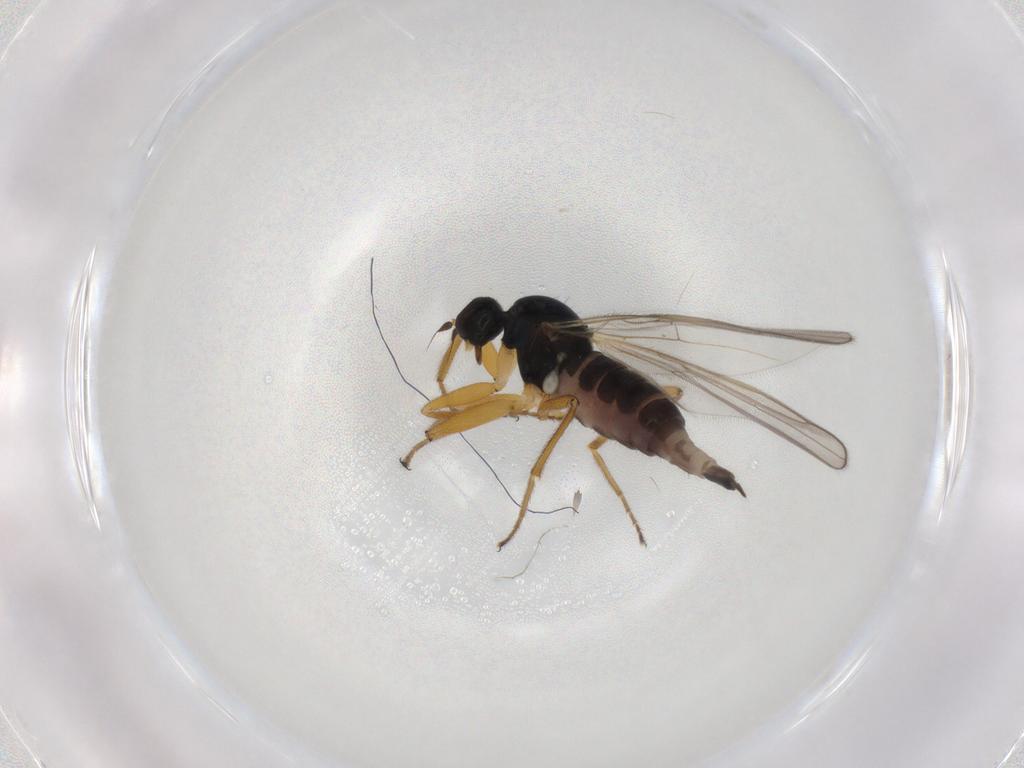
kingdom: Animalia
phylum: Arthropoda
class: Insecta
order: Diptera
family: Hybotidae
